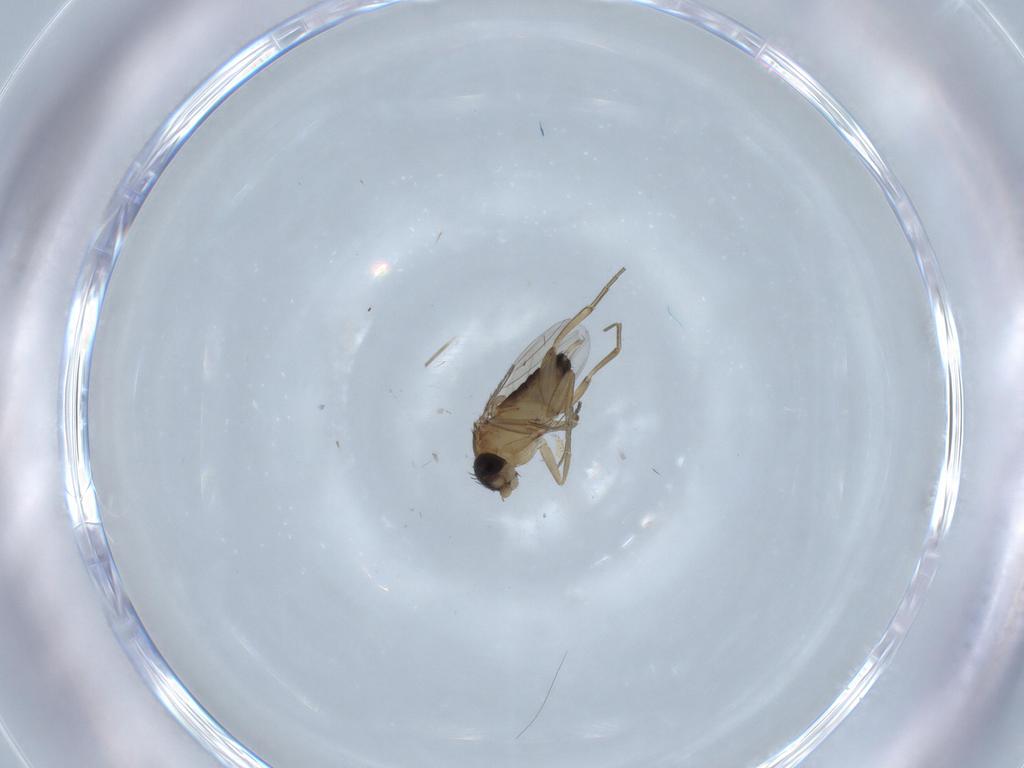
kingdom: Animalia
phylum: Arthropoda
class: Insecta
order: Diptera
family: Phoridae
